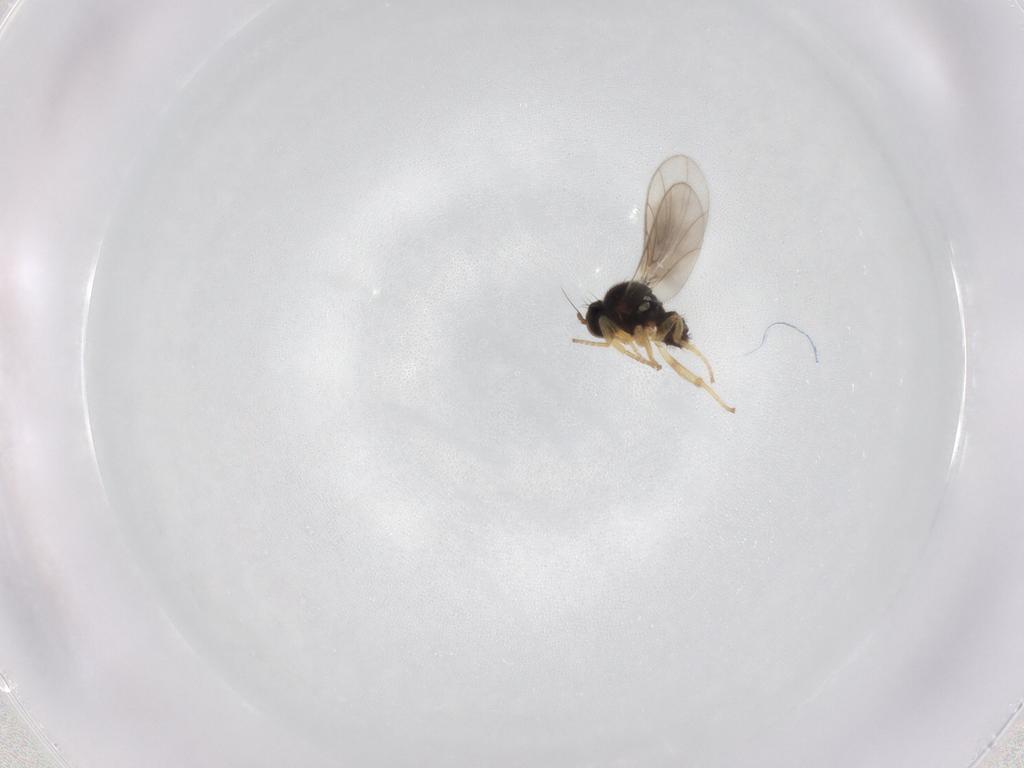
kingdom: Animalia
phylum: Arthropoda
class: Insecta
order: Diptera
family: Hybotidae
